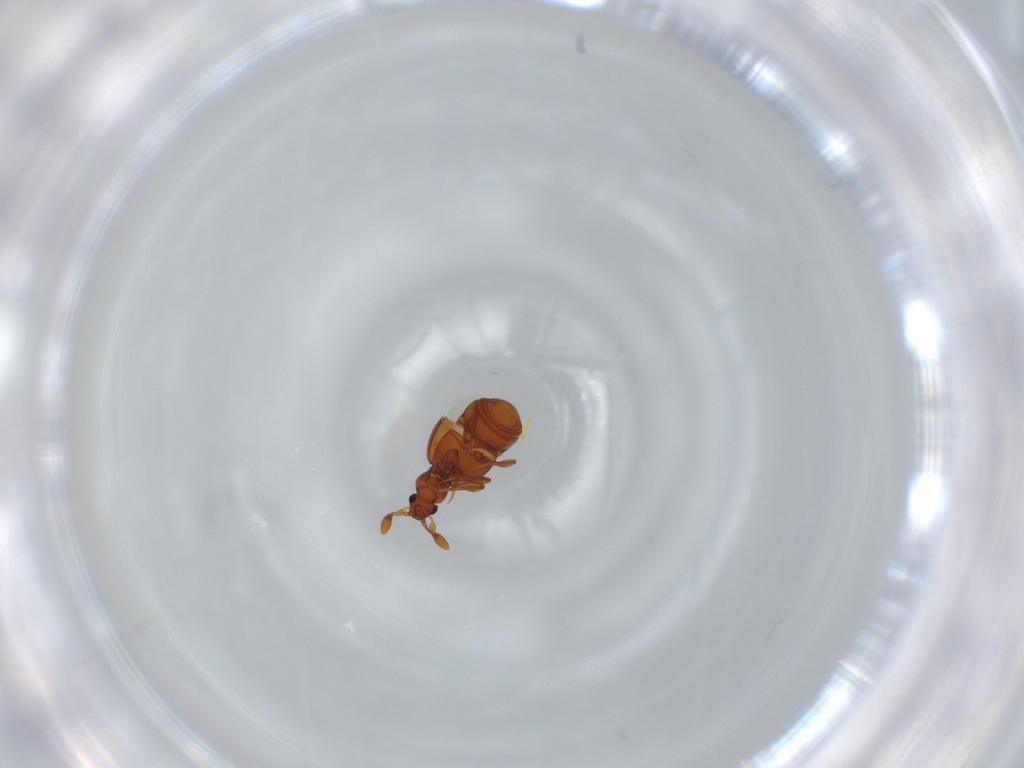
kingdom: Animalia
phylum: Arthropoda
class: Insecta
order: Coleoptera
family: Staphylinidae
